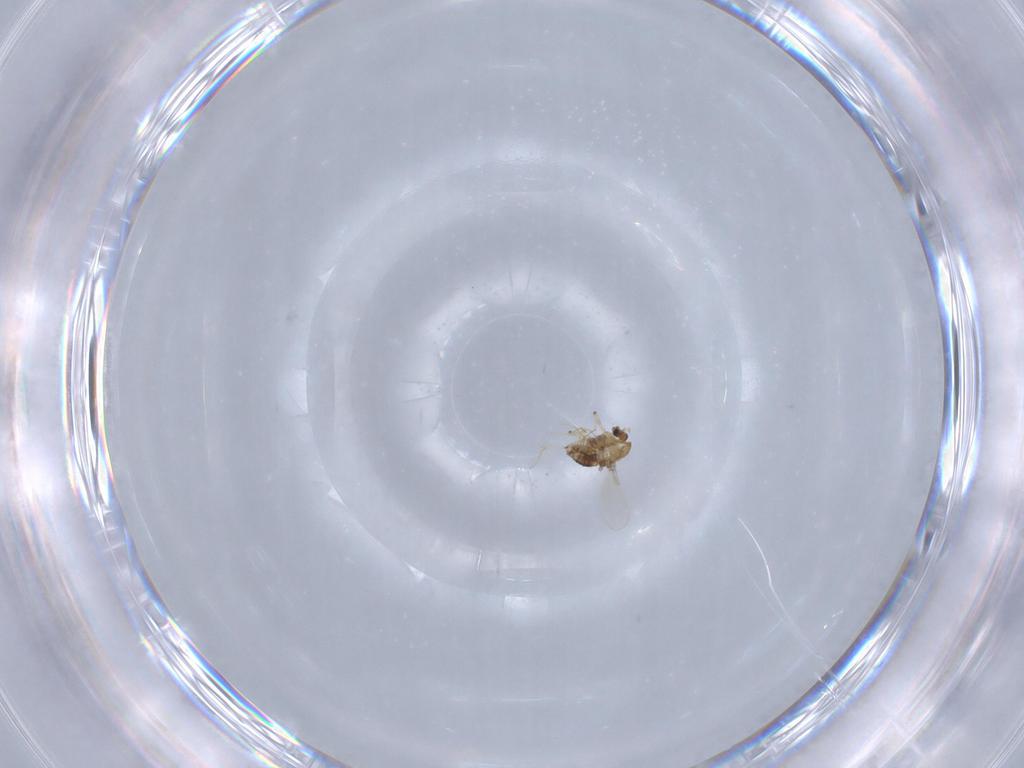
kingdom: Animalia
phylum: Arthropoda
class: Insecta
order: Diptera
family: Chironomidae
